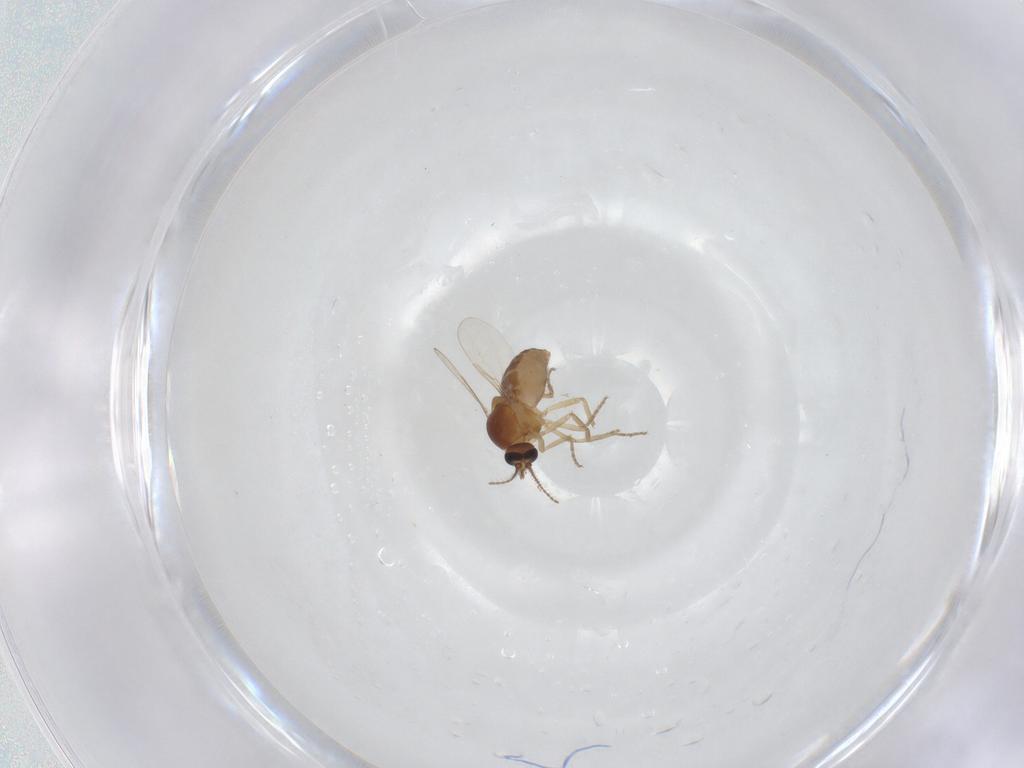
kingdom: Animalia
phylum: Arthropoda
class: Insecta
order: Diptera
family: Ceratopogonidae
